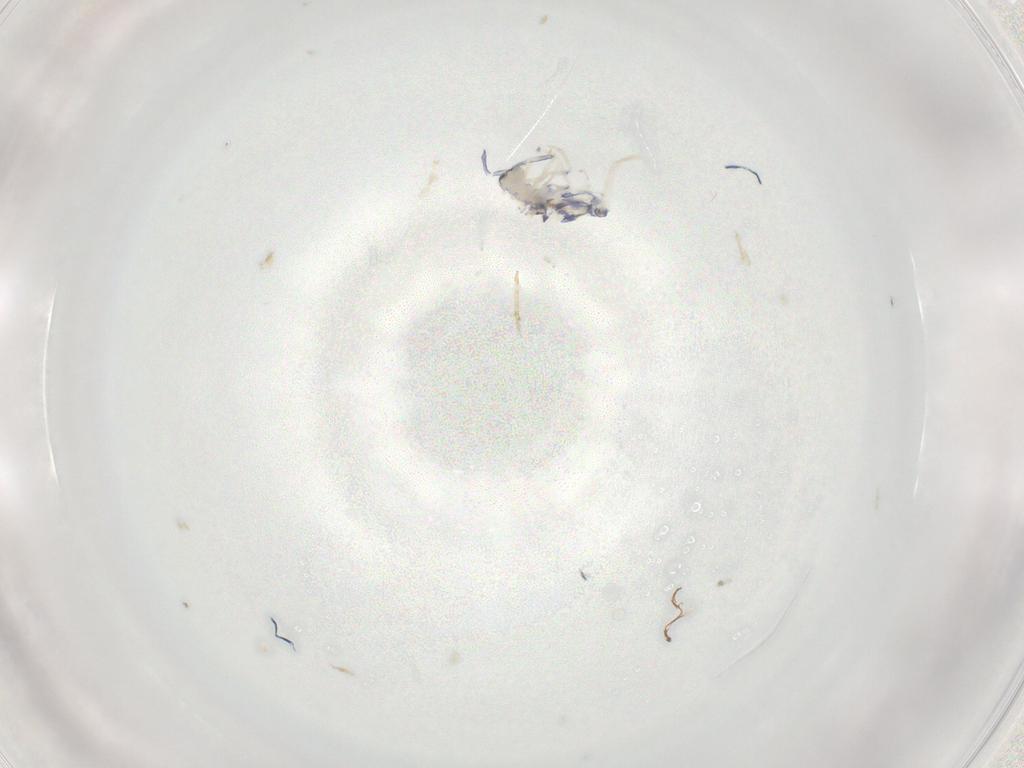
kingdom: Animalia
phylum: Arthropoda
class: Collembola
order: Entomobryomorpha
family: Entomobryidae
